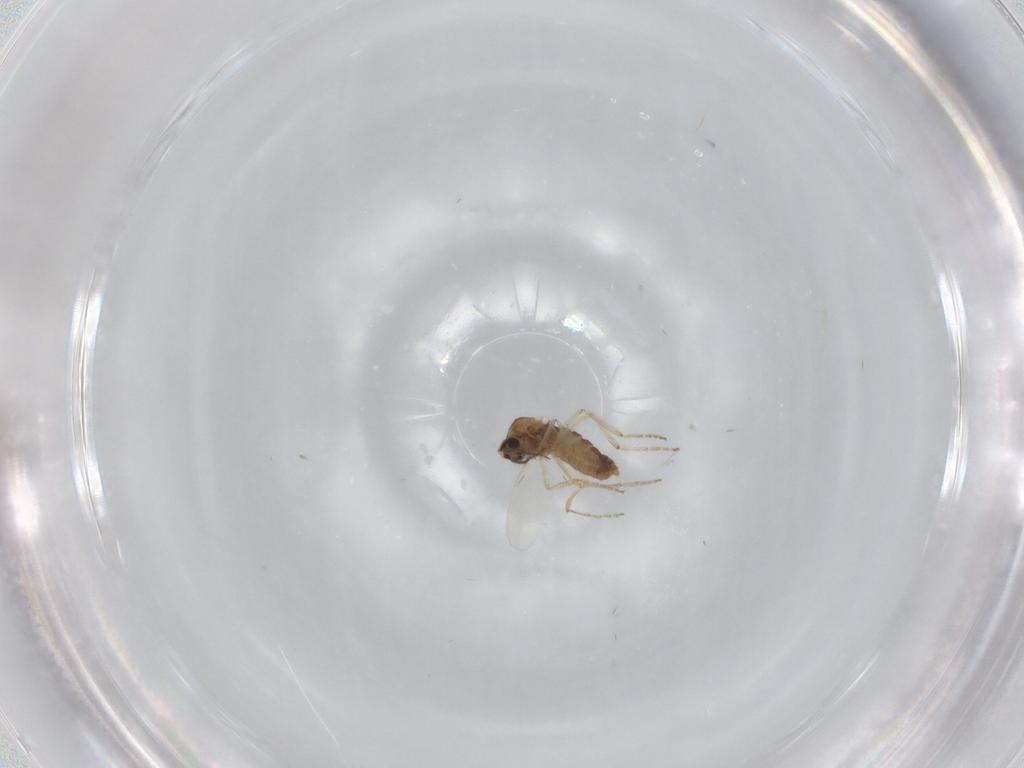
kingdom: Animalia
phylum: Arthropoda
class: Insecta
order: Diptera
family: Ceratopogonidae
